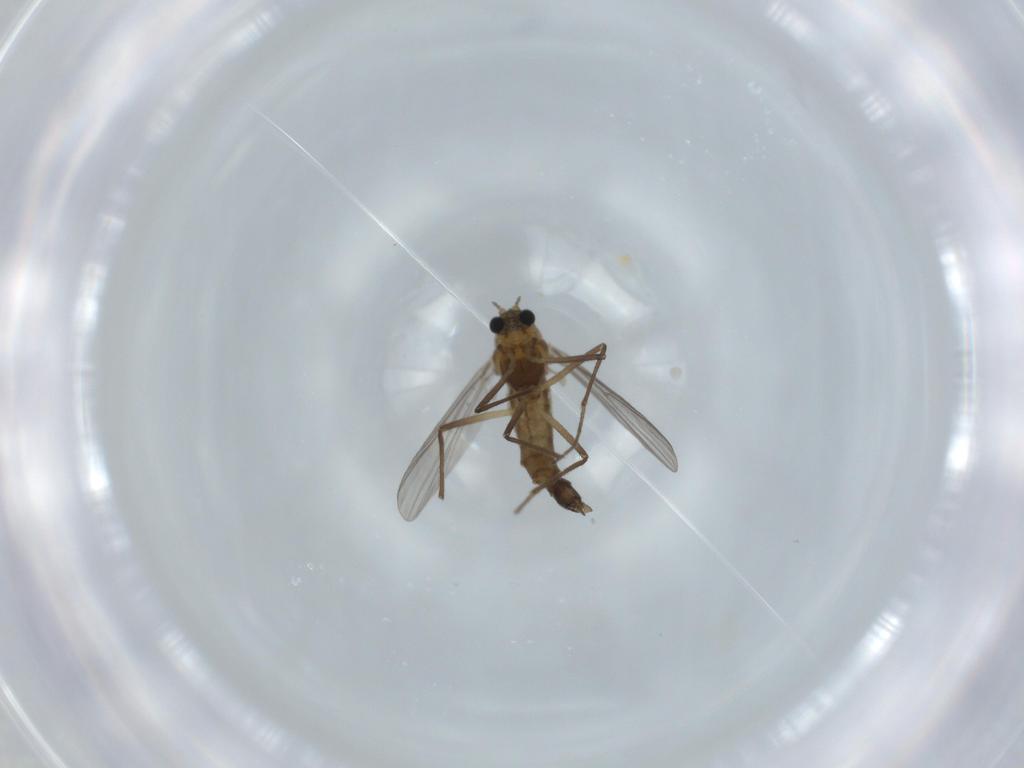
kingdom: Animalia
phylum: Arthropoda
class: Insecta
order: Diptera
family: Chironomidae
